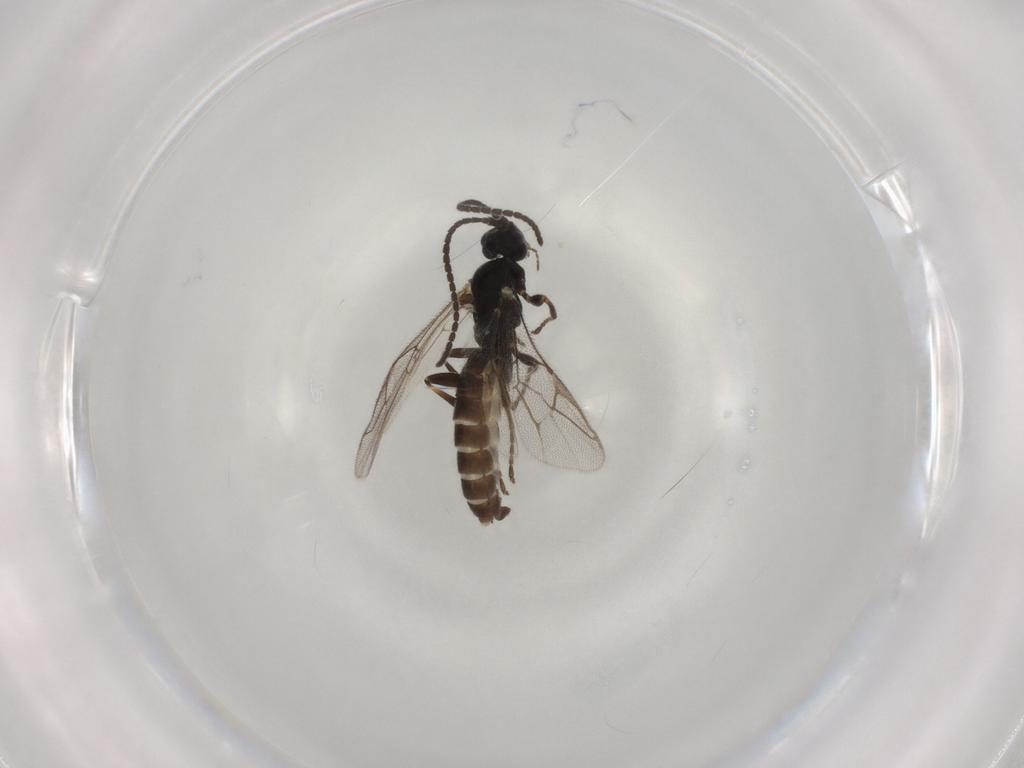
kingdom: Animalia
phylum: Arthropoda
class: Insecta
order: Hymenoptera
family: Ichneumonidae
